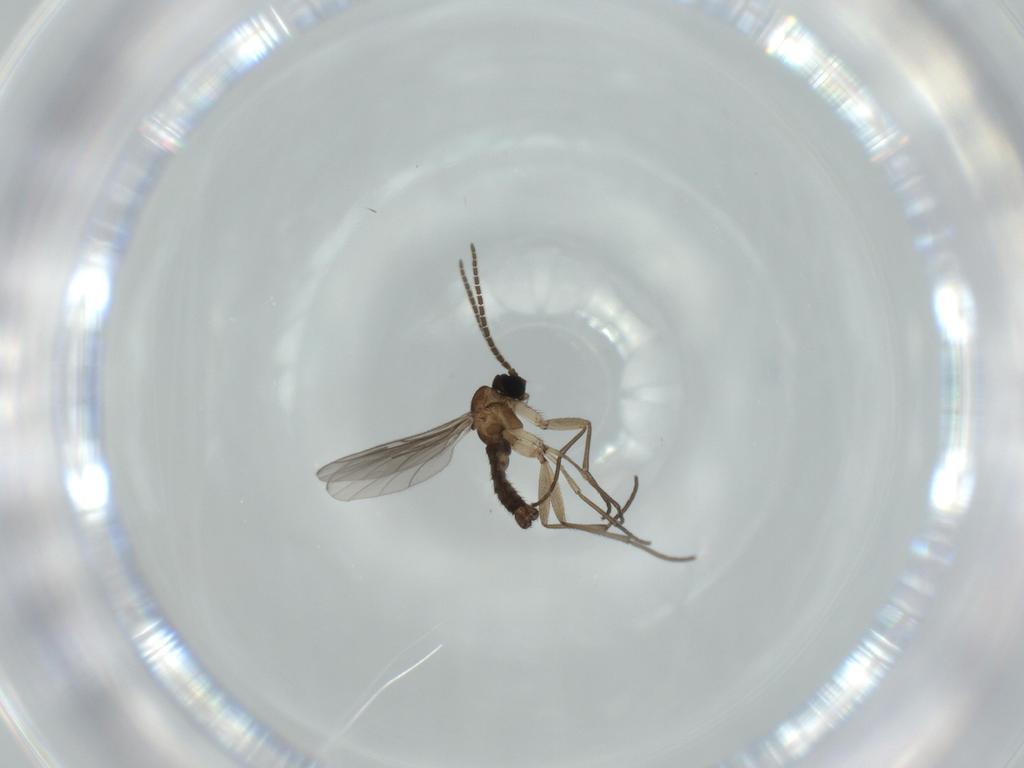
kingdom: Animalia
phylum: Arthropoda
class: Insecta
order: Diptera
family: Sciaridae
